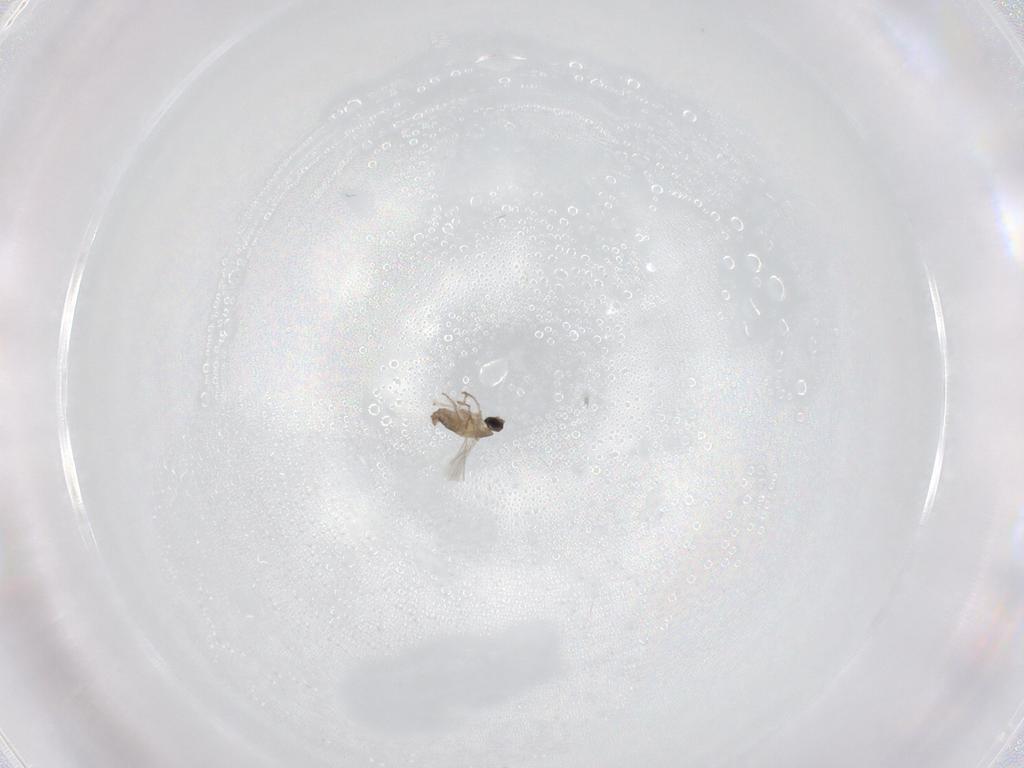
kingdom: Animalia
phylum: Arthropoda
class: Insecta
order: Diptera
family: Cecidomyiidae
